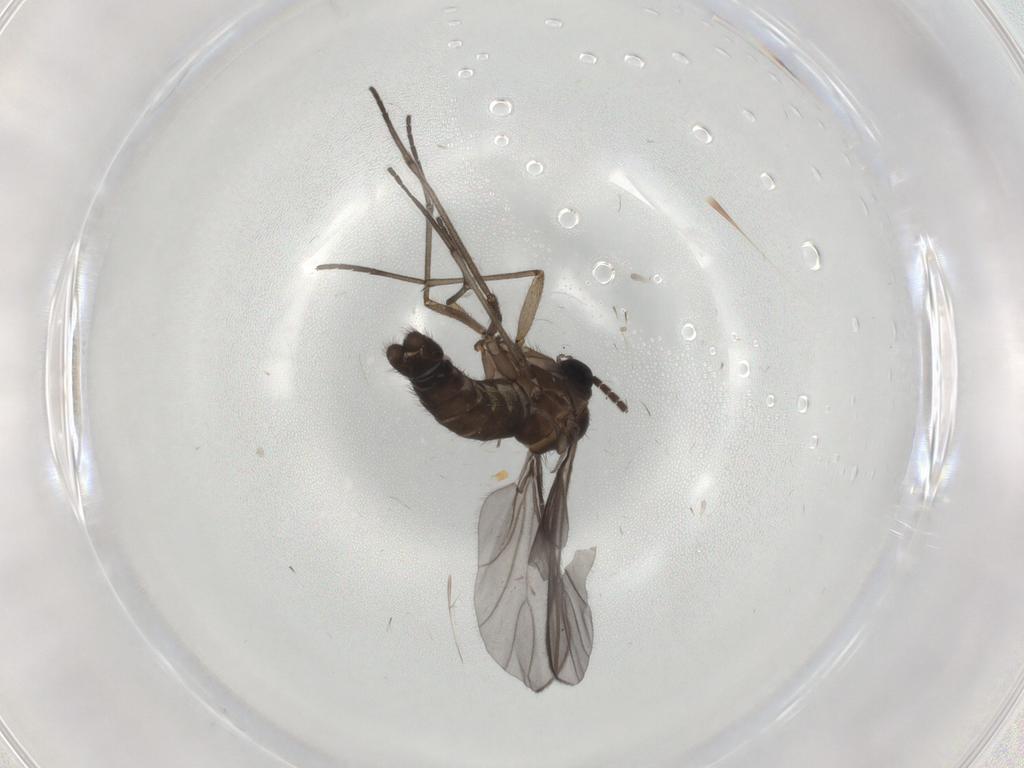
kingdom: Animalia
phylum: Arthropoda
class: Insecta
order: Diptera
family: Sciaridae
